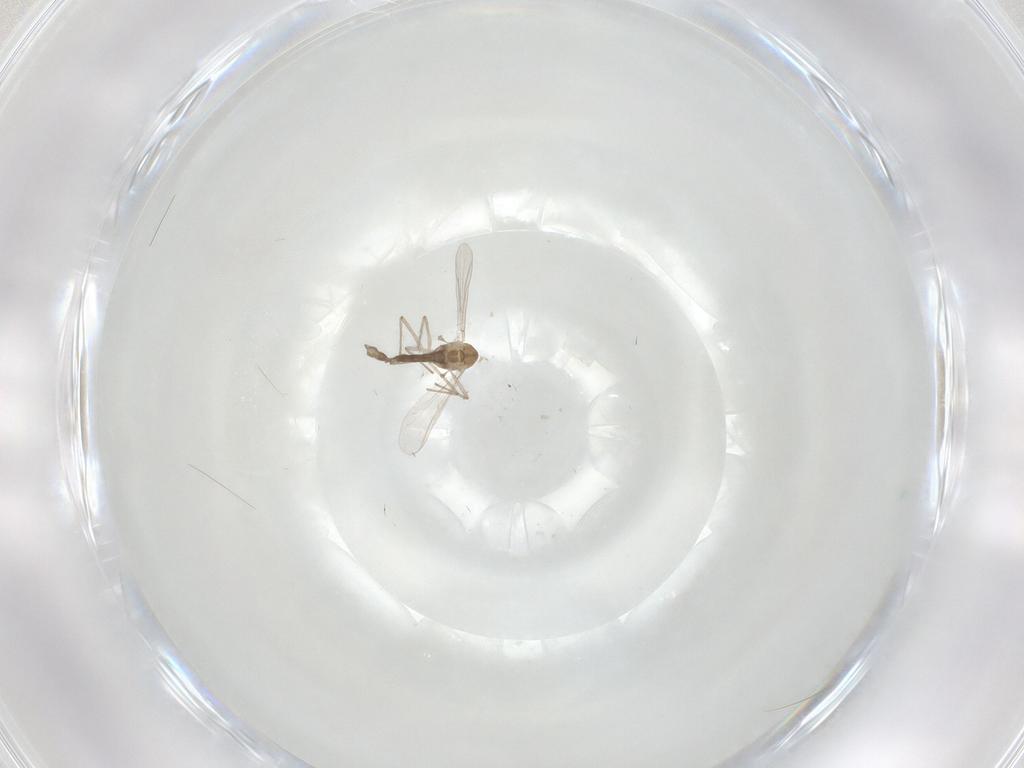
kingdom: Animalia
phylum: Arthropoda
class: Insecta
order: Diptera
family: Chironomidae
